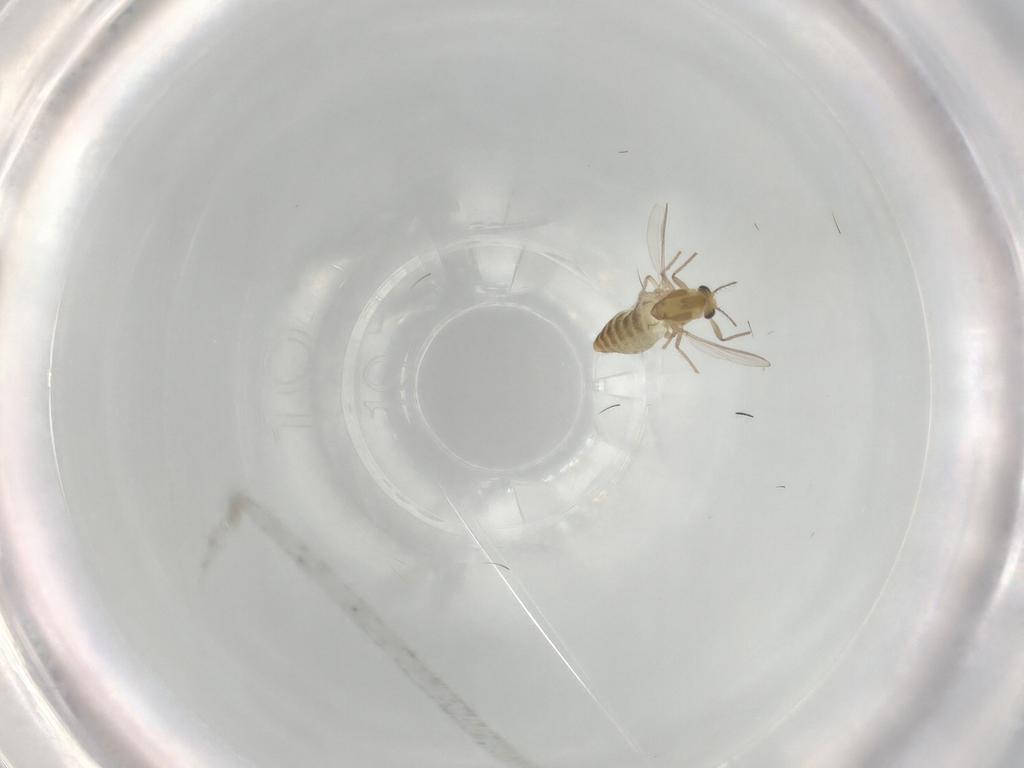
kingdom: Animalia
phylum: Arthropoda
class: Insecta
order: Diptera
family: Chironomidae
